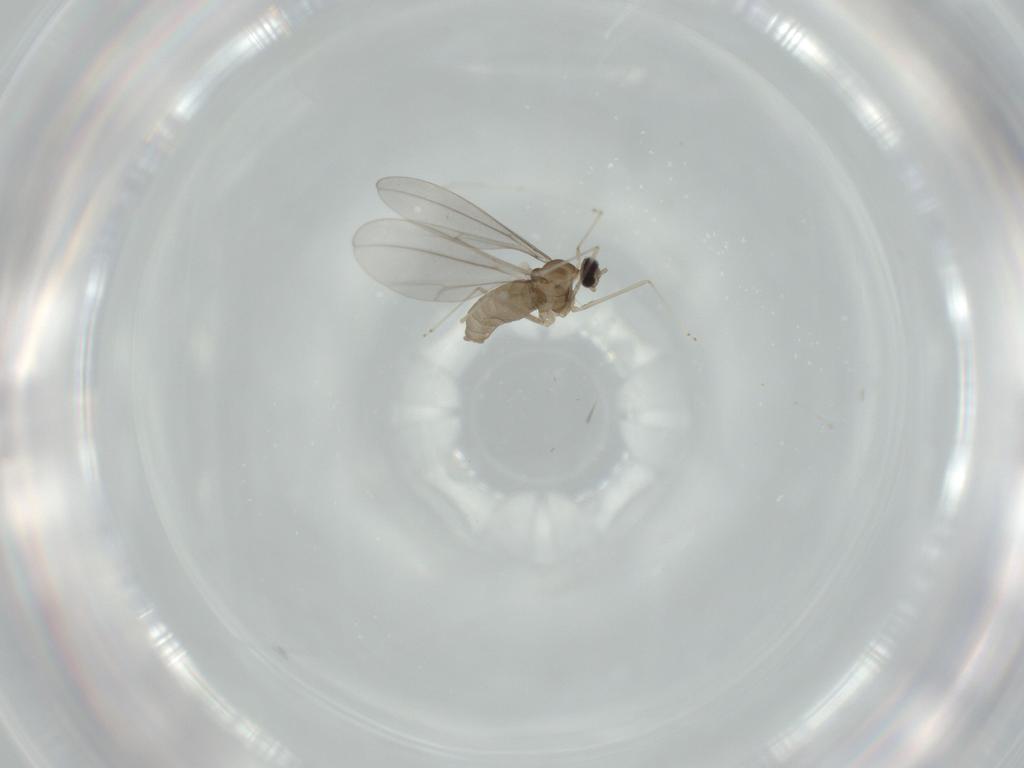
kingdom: Animalia
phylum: Arthropoda
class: Insecta
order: Diptera
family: Cecidomyiidae
